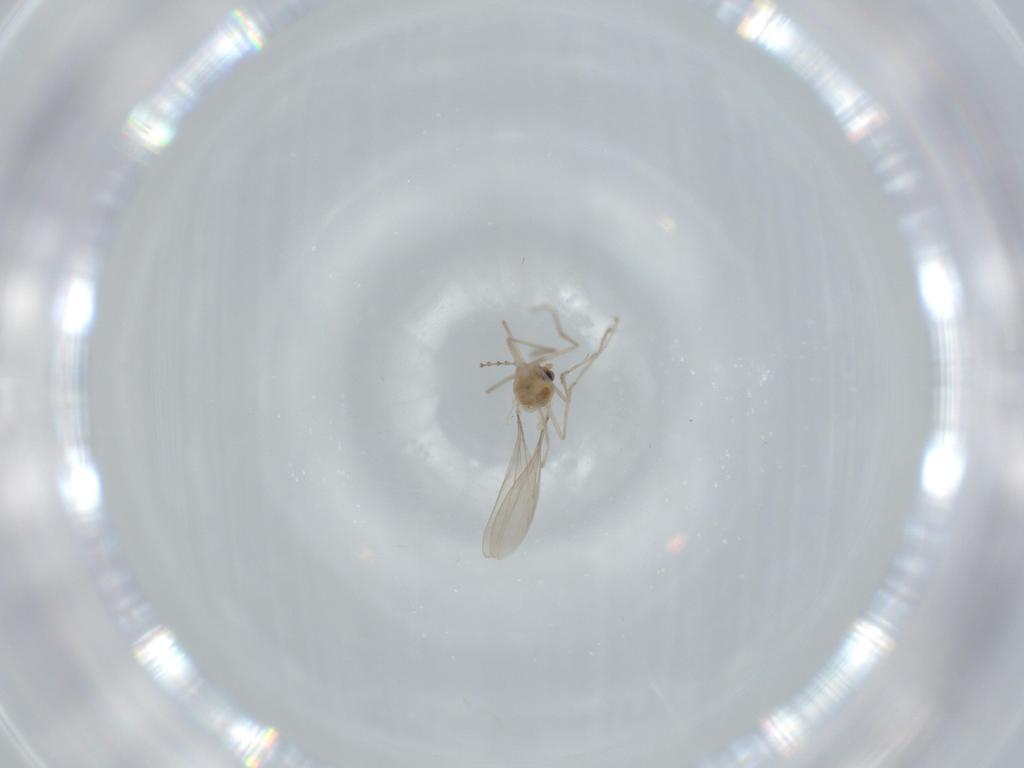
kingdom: Animalia
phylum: Arthropoda
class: Insecta
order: Diptera
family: Cecidomyiidae
